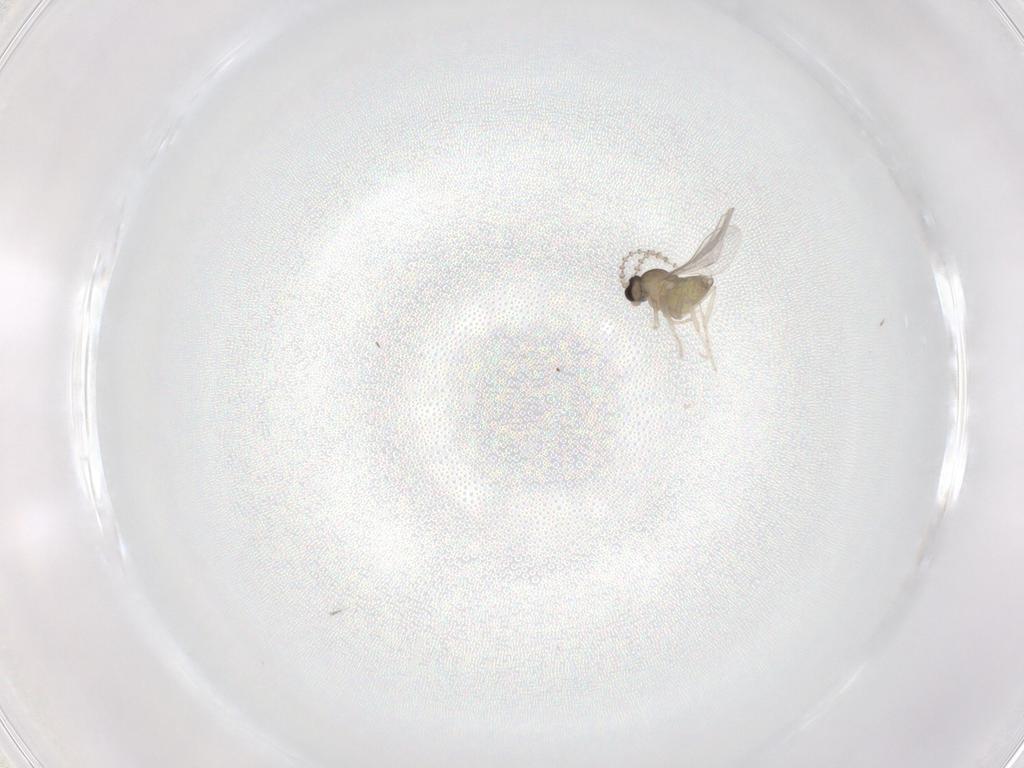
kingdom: Animalia
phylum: Arthropoda
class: Insecta
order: Diptera
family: Cecidomyiidae
